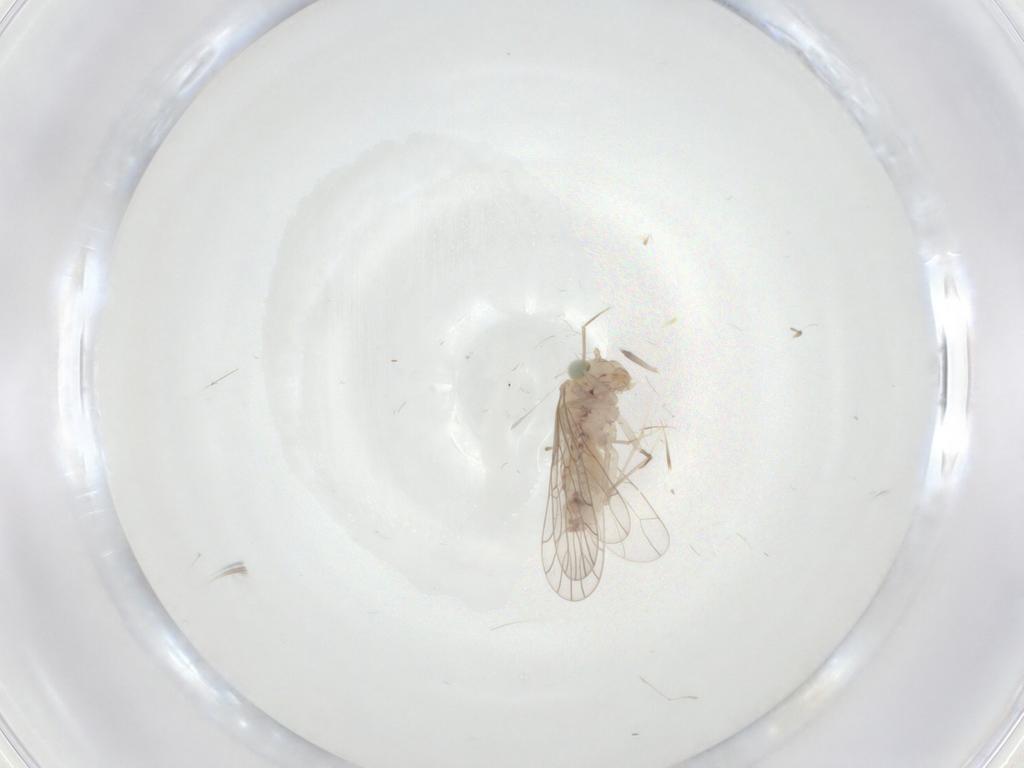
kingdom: Animalia
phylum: Arthropoda
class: Insecta
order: Psocodea
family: Amphientomidae
